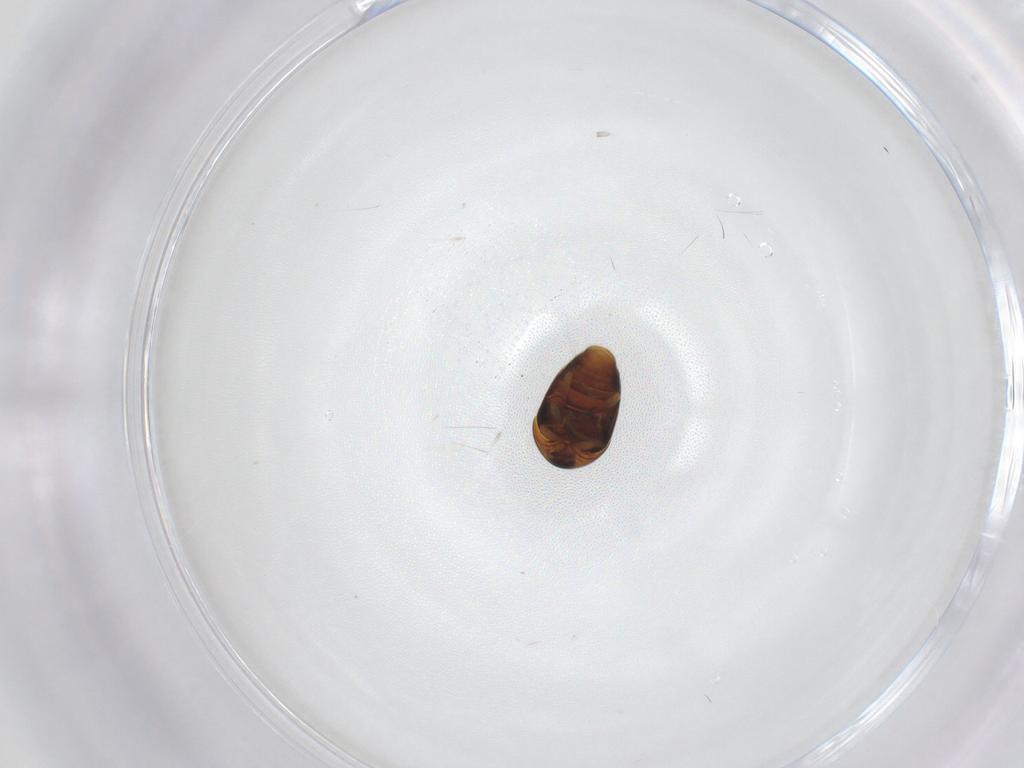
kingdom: Animalia
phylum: Arthropoda
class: Insecta
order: Coleoptera
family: Corylophidae
